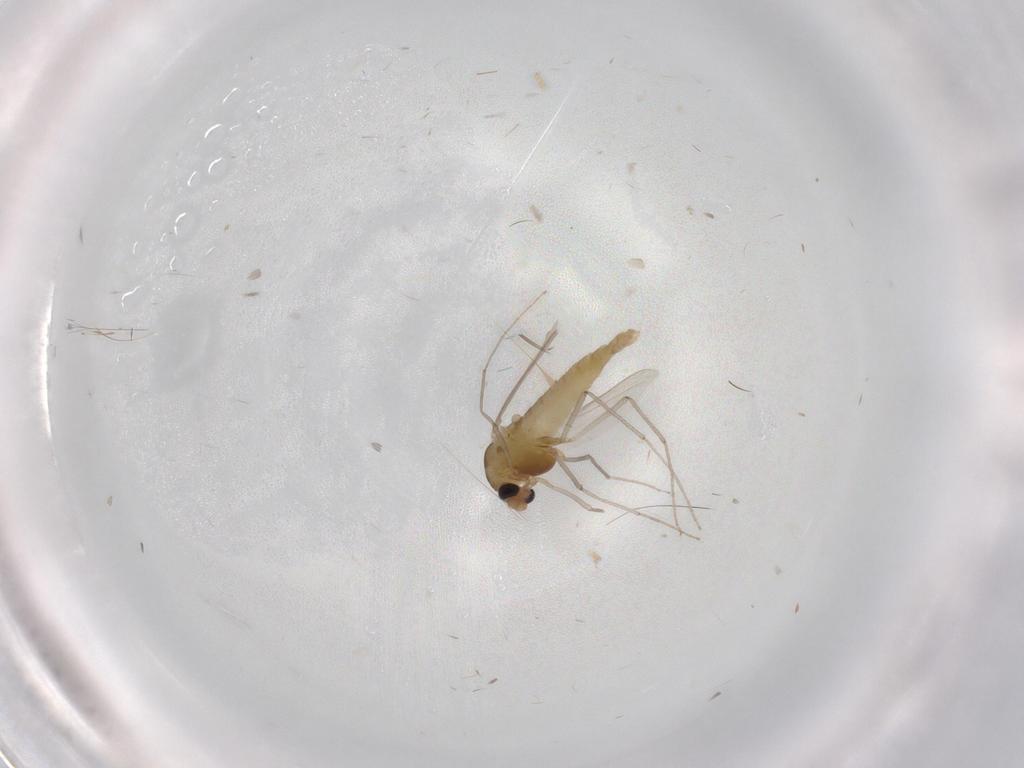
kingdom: Animalia
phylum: Arthropoda
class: Insecta
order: Diptera
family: Chironomidae
